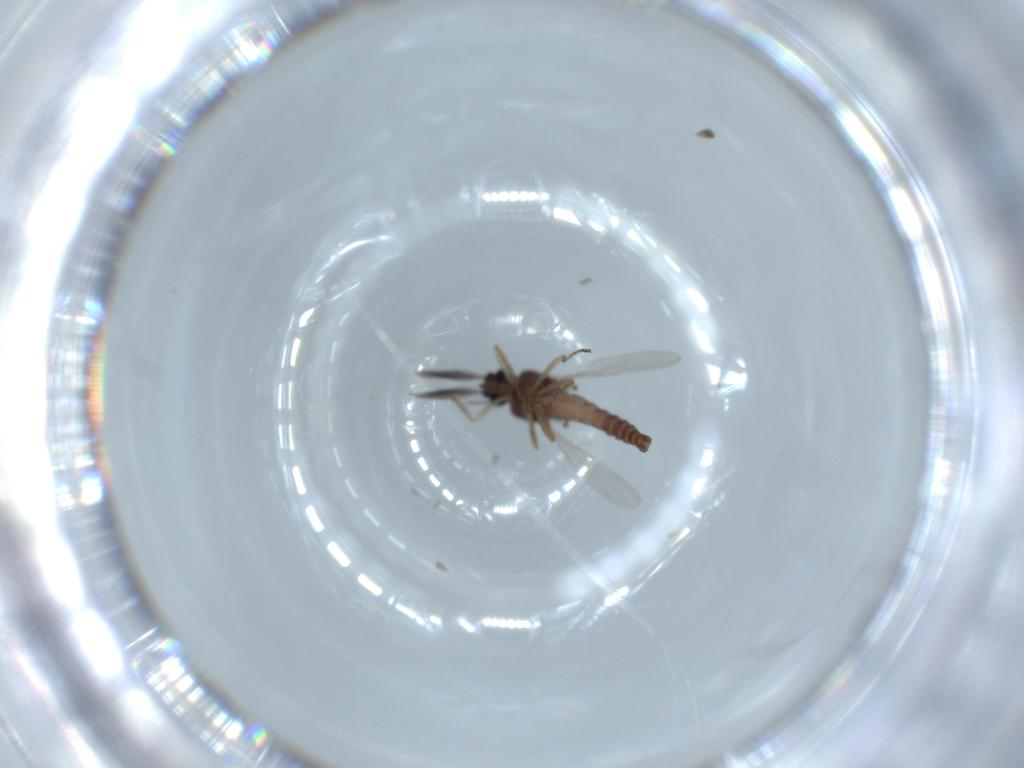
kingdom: Animalia
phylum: Arthropoda
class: Insecta
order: Diptera
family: Ceratopogonidae
